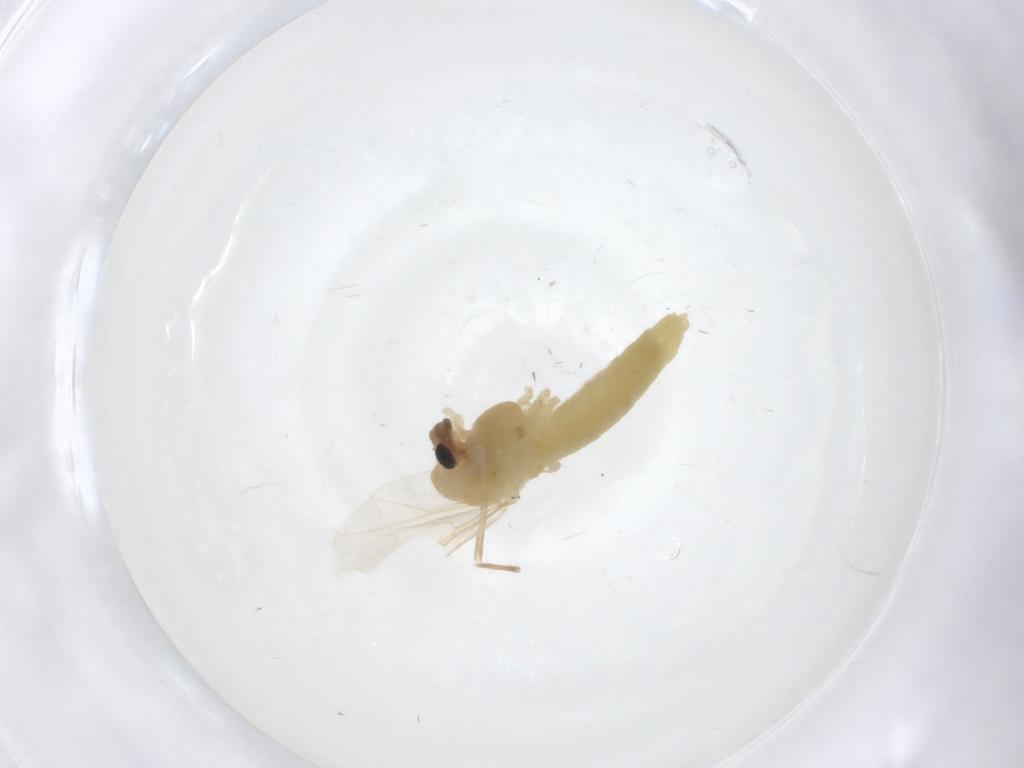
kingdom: Animalia
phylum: Arthropoda
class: Insecta
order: Diptera
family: Chironomidae
